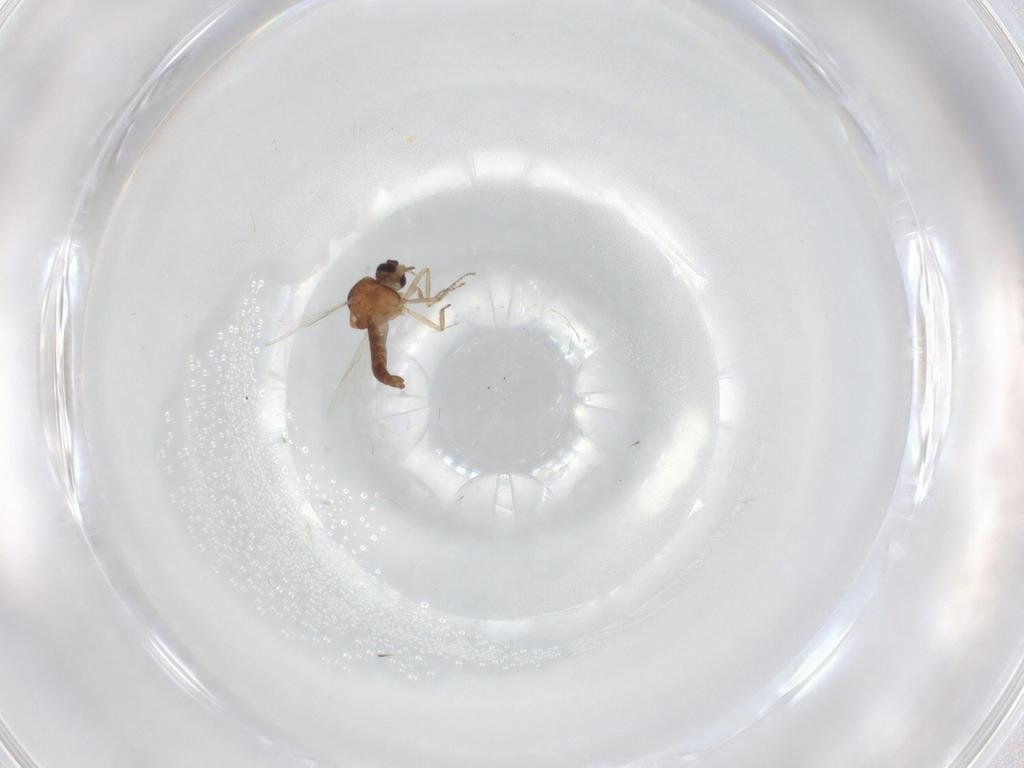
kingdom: Animalia
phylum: Arthropoda
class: Insecta
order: Diptera
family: Ceratopogonidae
